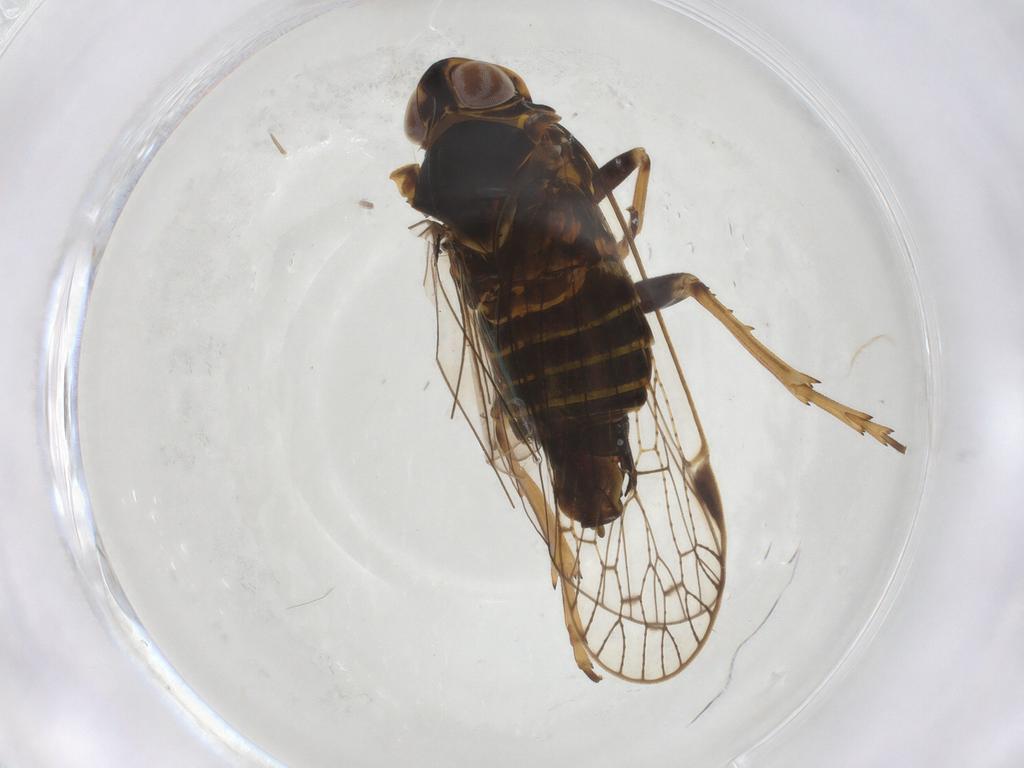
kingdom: Animalia
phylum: Arthropoda
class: Insecta
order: Hemiptera
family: Cixiidae
